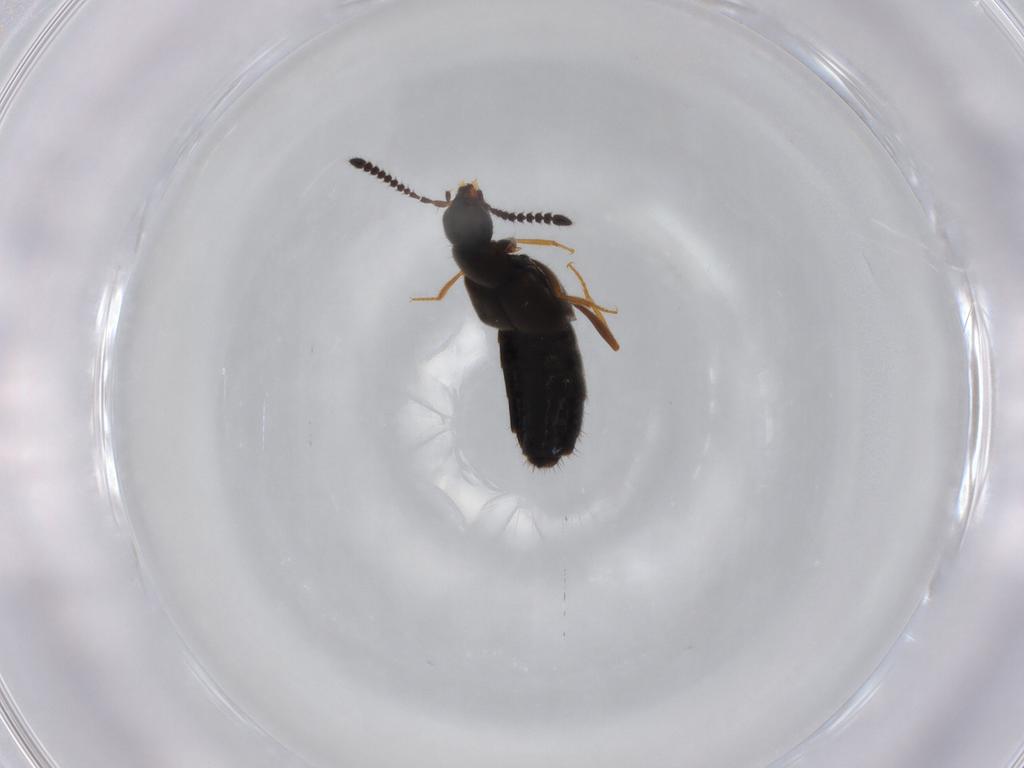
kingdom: Animalia
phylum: Arthropoda
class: Insecta
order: Coleoptera
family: Staphylinidae
